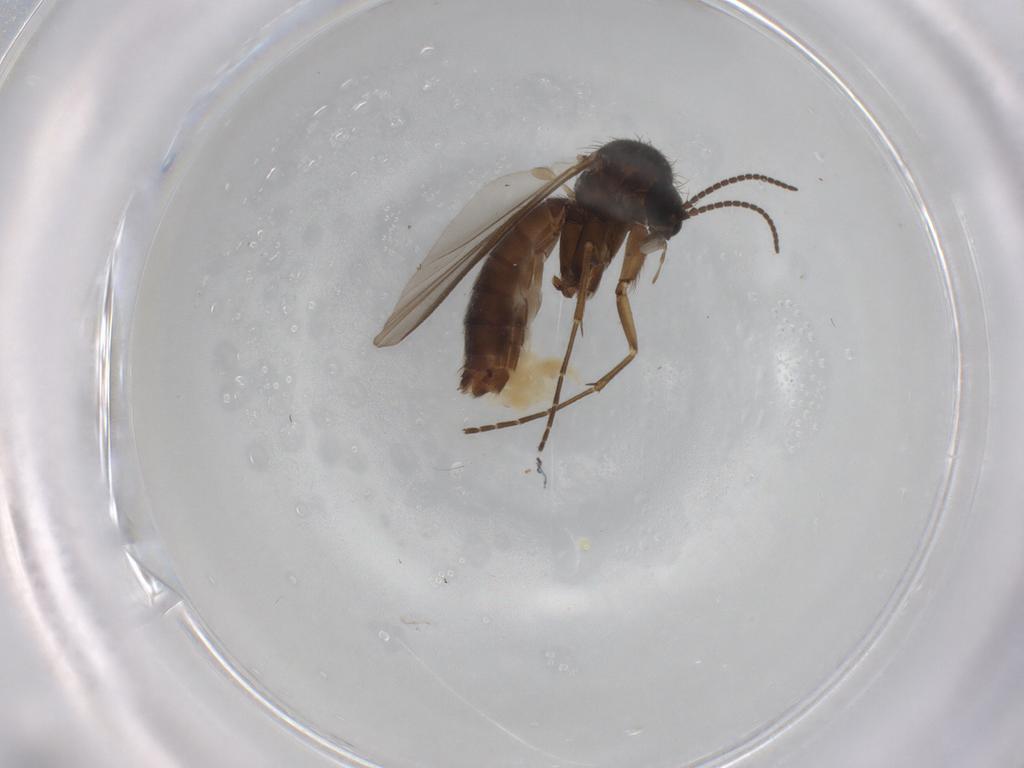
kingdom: Animalia
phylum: Arthropoda
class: Insecta
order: Diptera
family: Mycetophilidae
